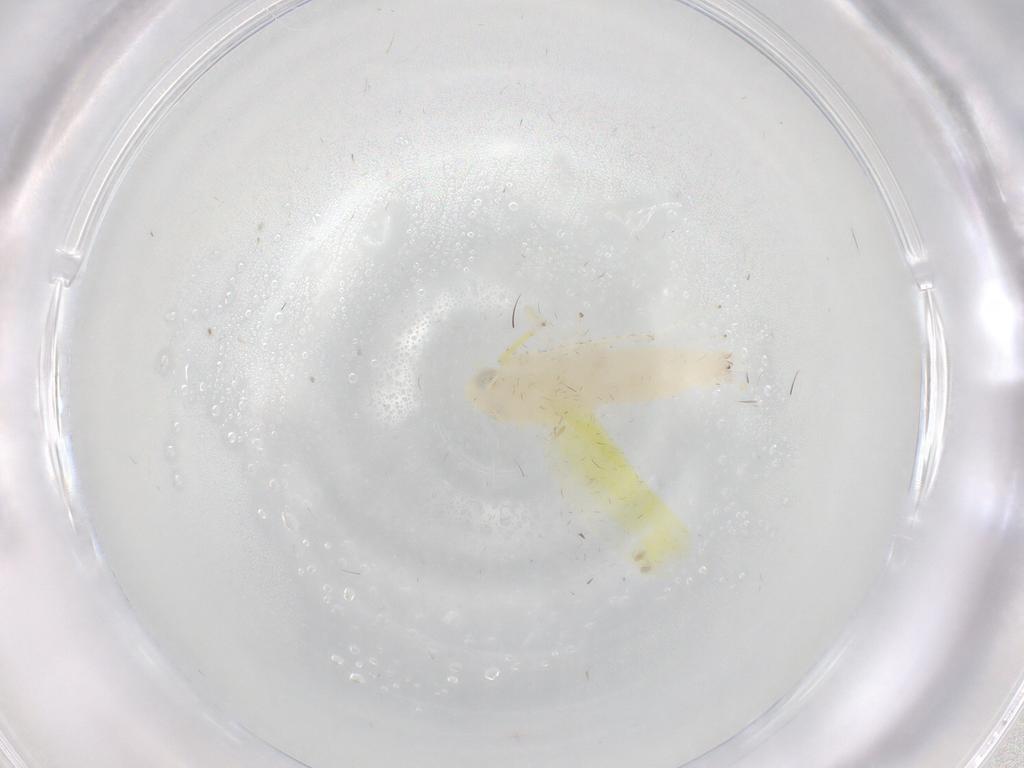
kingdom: Animalia
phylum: Arthropoda
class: Insecta
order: Hemiptera
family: Cicadellidae
